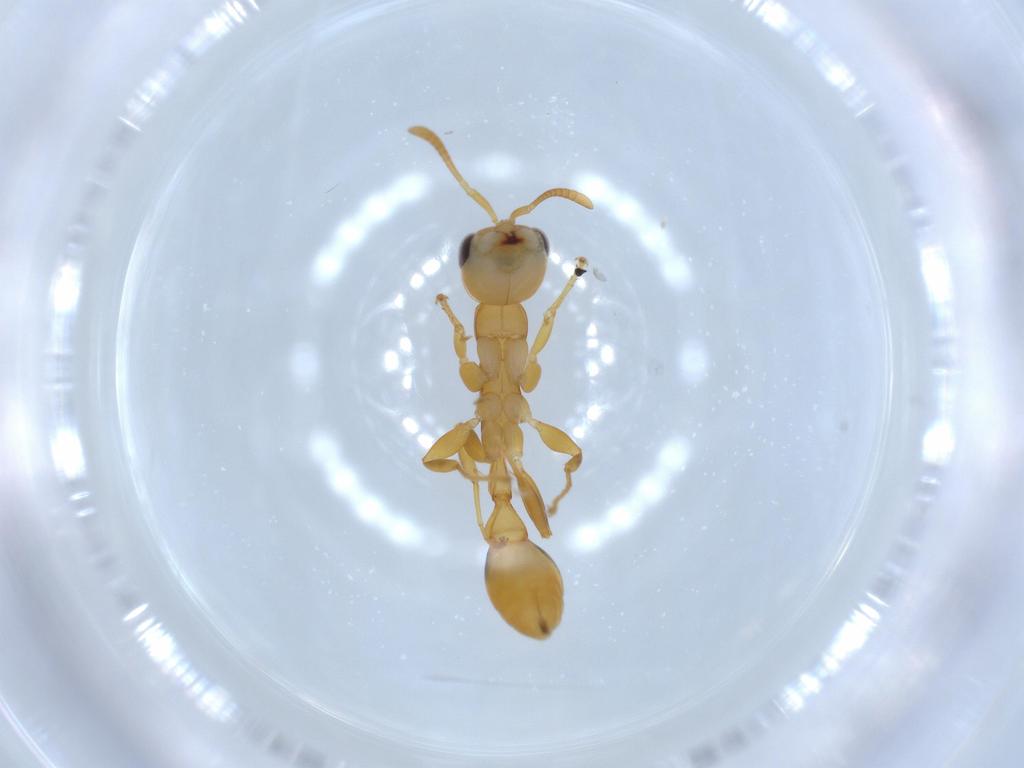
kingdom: Animalia
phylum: Arthropoda
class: Insecta
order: Hymenoptera
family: Formicidae
